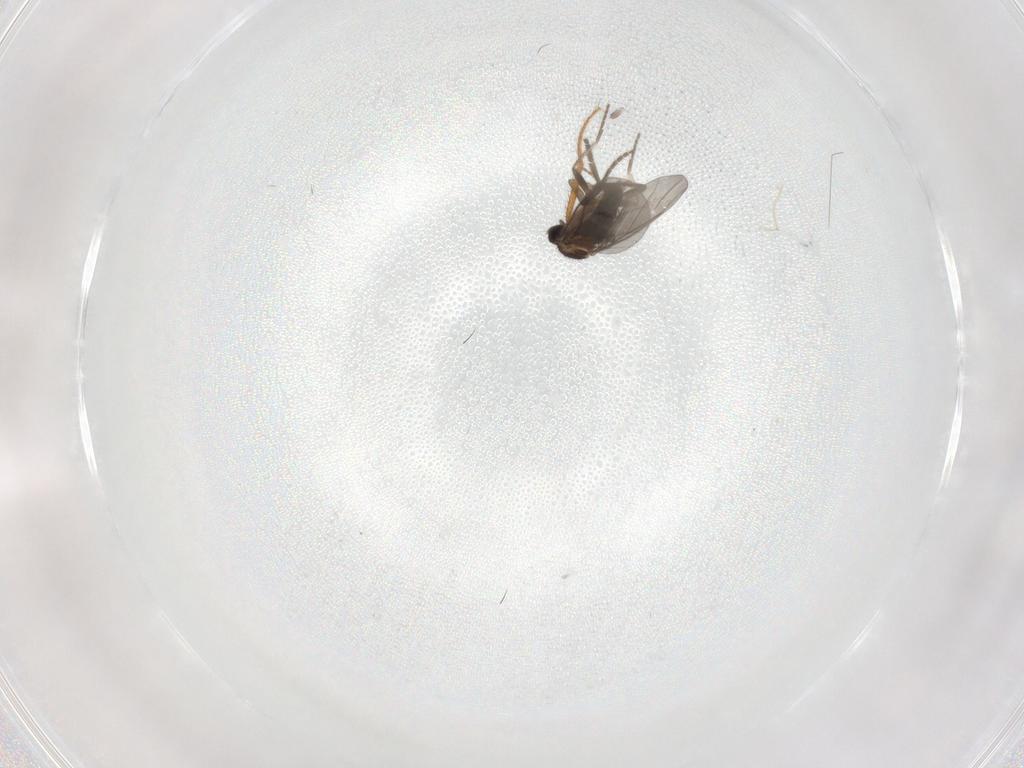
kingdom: Animalia
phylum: Arthropoda
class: Insecta
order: Diptera
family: Phoridae
